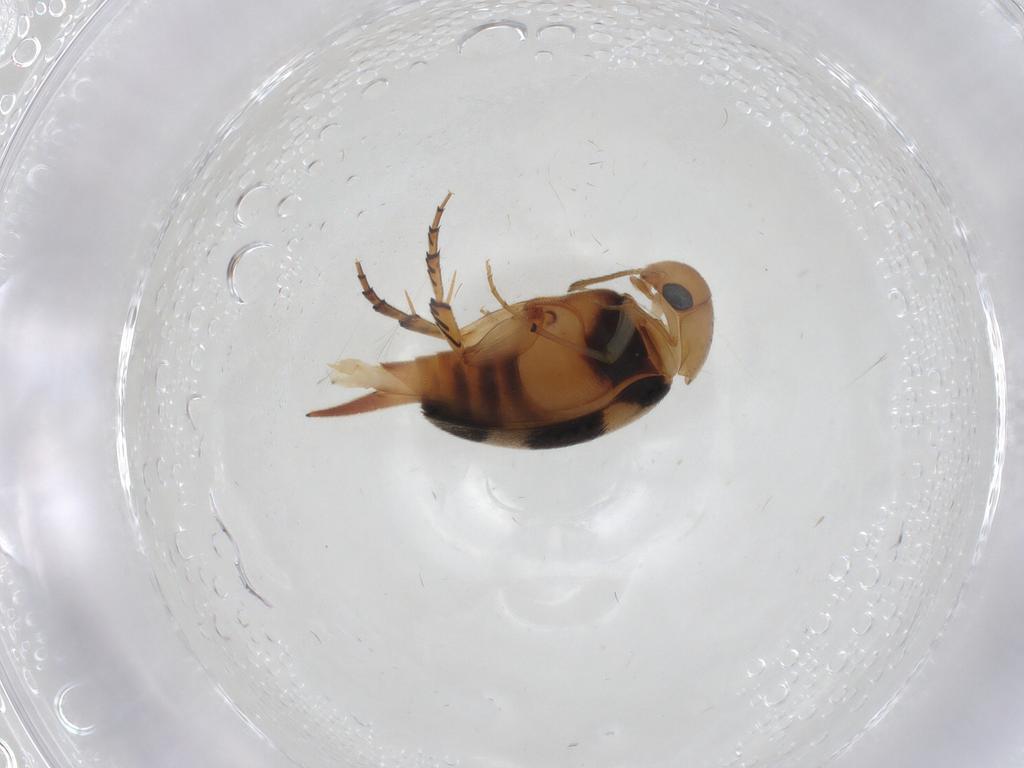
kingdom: Animalia
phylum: Arthropoda
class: Insecta
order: Coleoptera
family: Mordellidae
